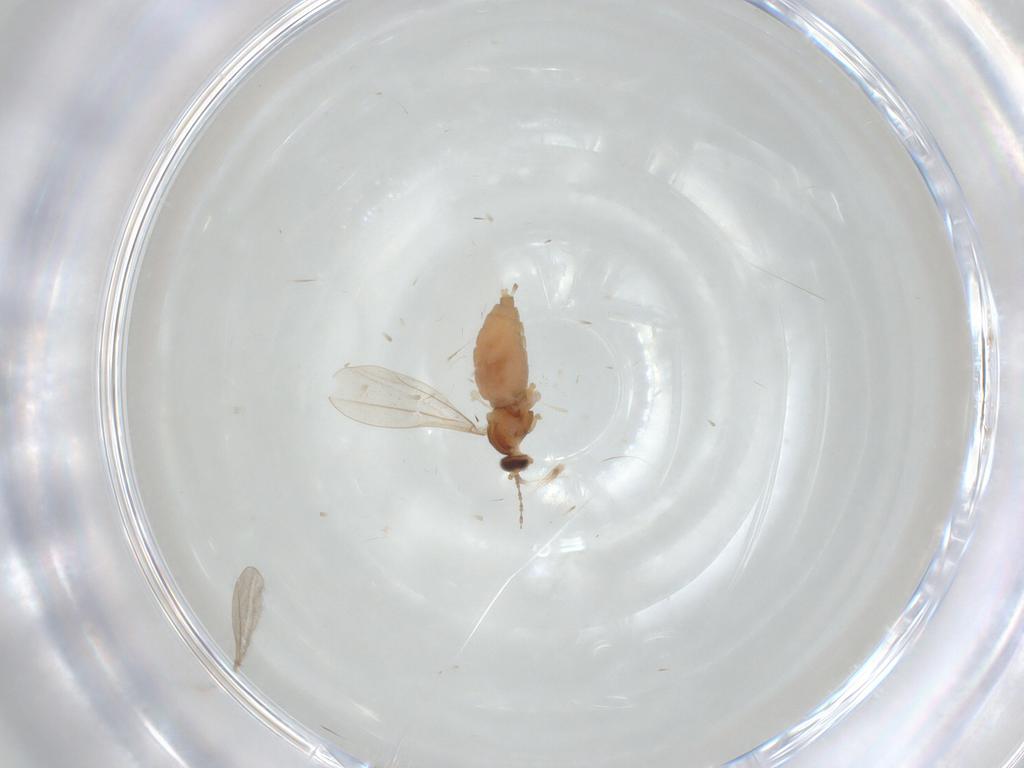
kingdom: Animalia
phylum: Arthropoda
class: Insecta
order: Diptera
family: Cecidomyiidae
